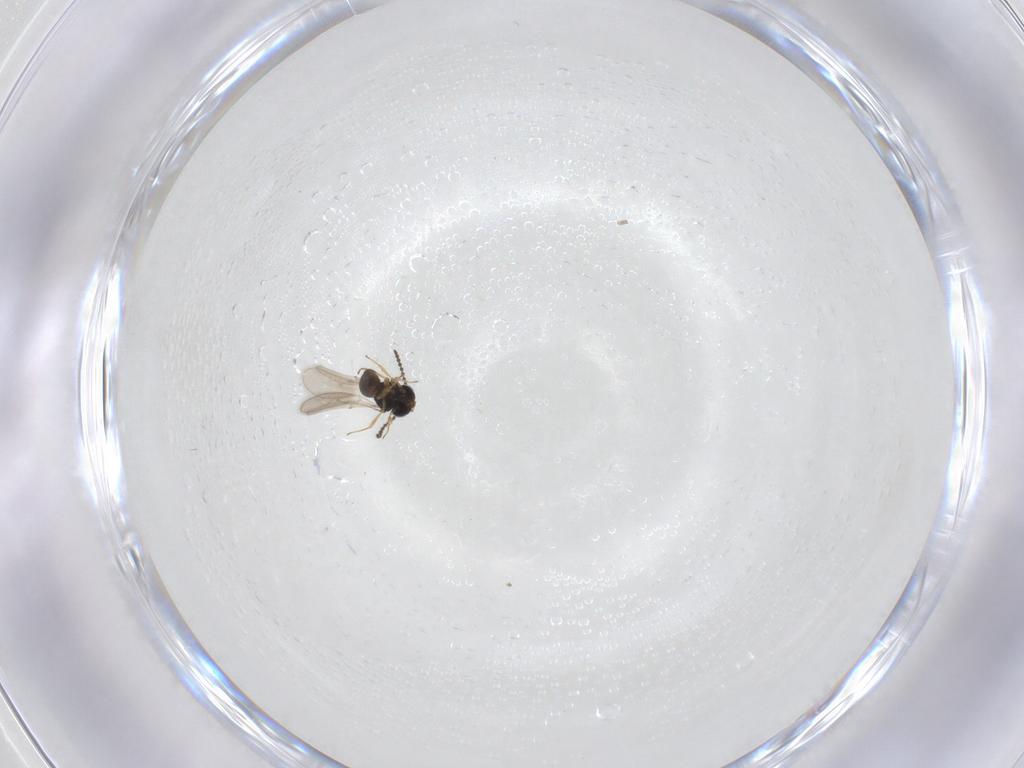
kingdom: Animalia
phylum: Arthropoda
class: Insecta
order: Hymenoptera
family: Scelionidae
